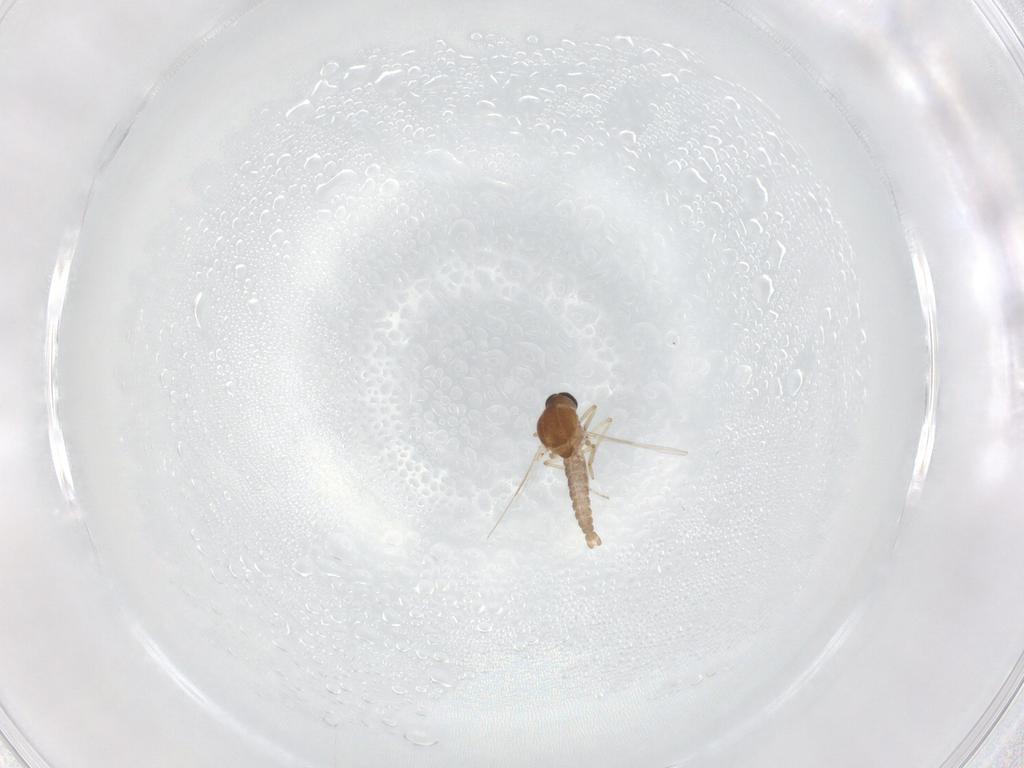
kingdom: Animalia
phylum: Arthropoda
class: Insecta
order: Diptera
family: Ceratopogonidae
